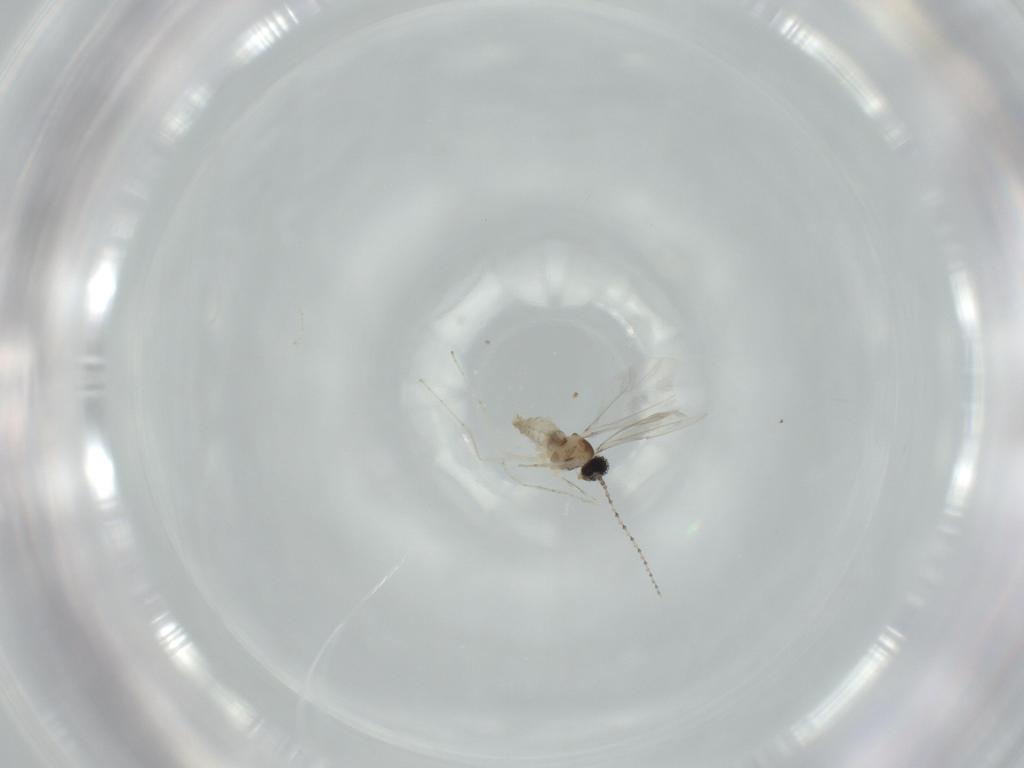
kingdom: Animalia
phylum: Arthropoda
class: Insecta
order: Diptera
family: Cecidomyiidae
